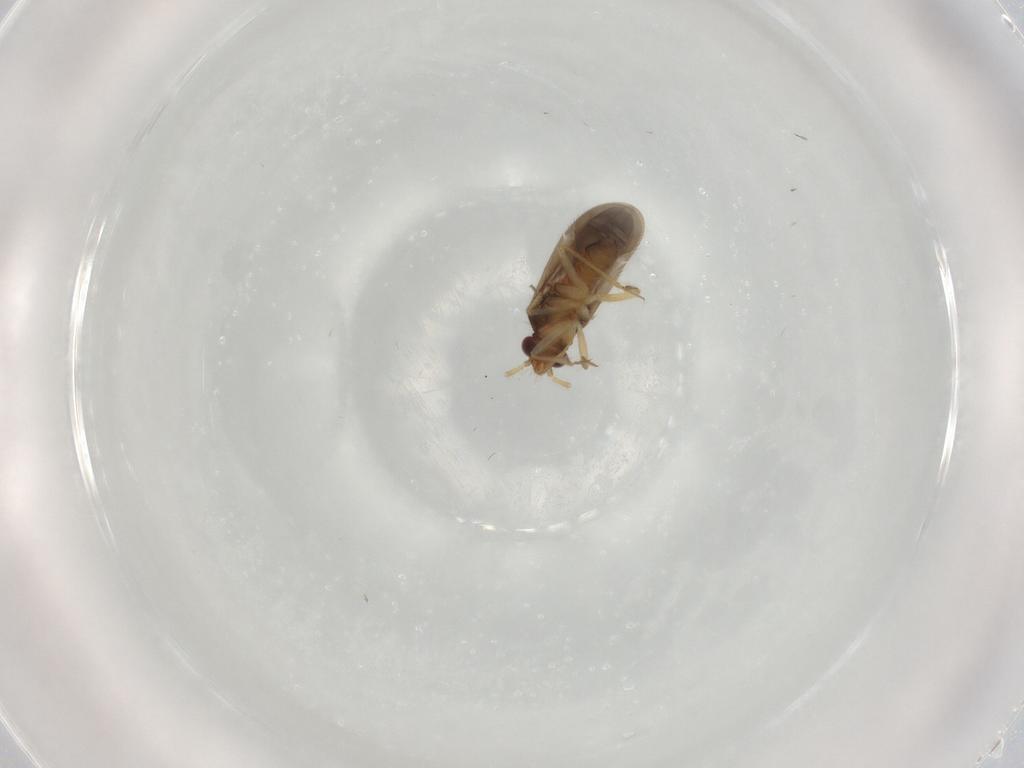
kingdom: Animalia
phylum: Arthropoda
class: Insecta
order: Hemiptera
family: Ceratocombidae
